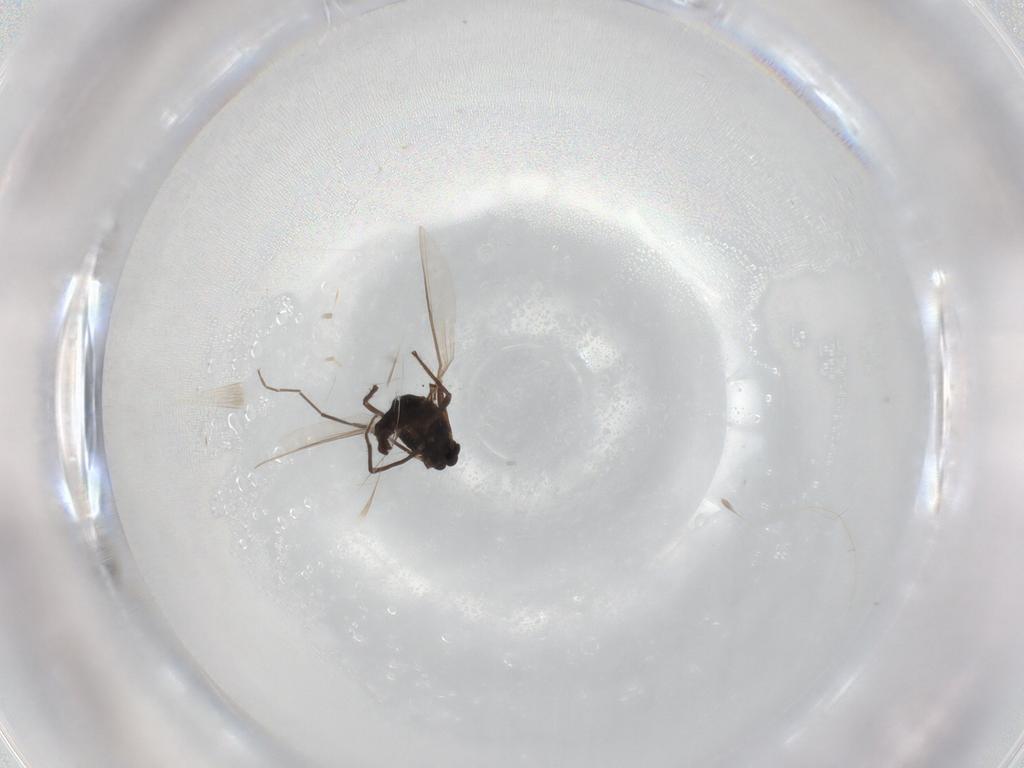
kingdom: Animalia
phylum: Arthropoda
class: Insecta
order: Diptera
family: Chironomidae
